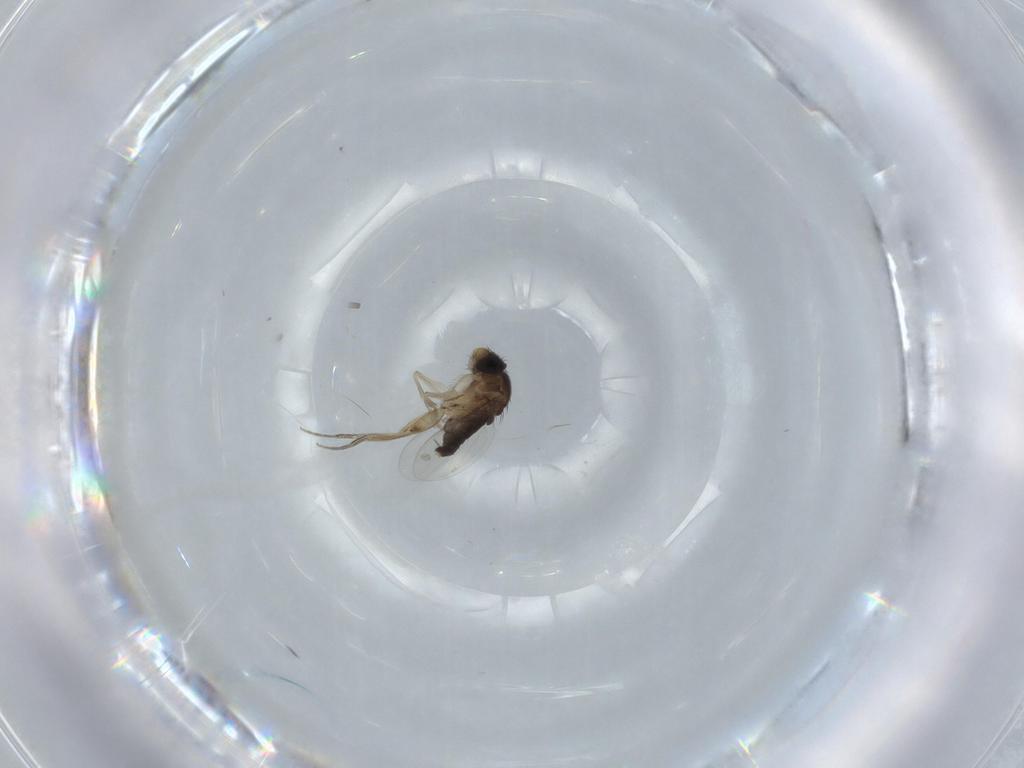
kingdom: Animalia
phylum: Arthropoda
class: Insecta
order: Diptera
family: Phoridae
